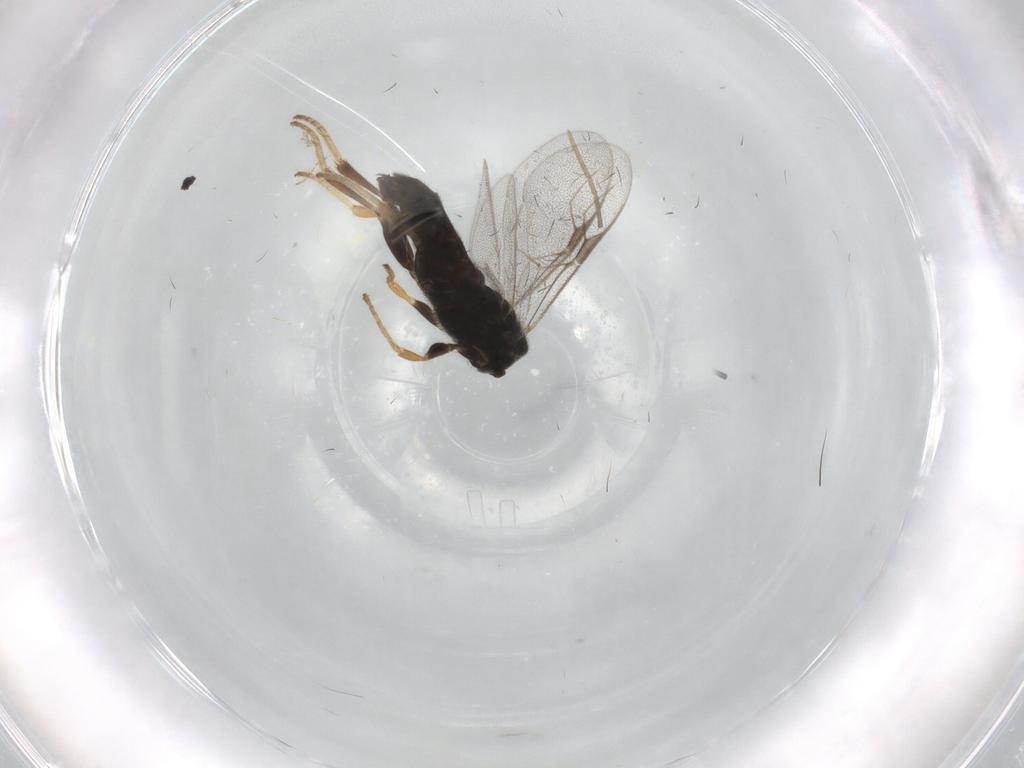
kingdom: Animalia
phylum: Arthropoda
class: Insecta
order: Hymenoptera
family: Dryinidae
